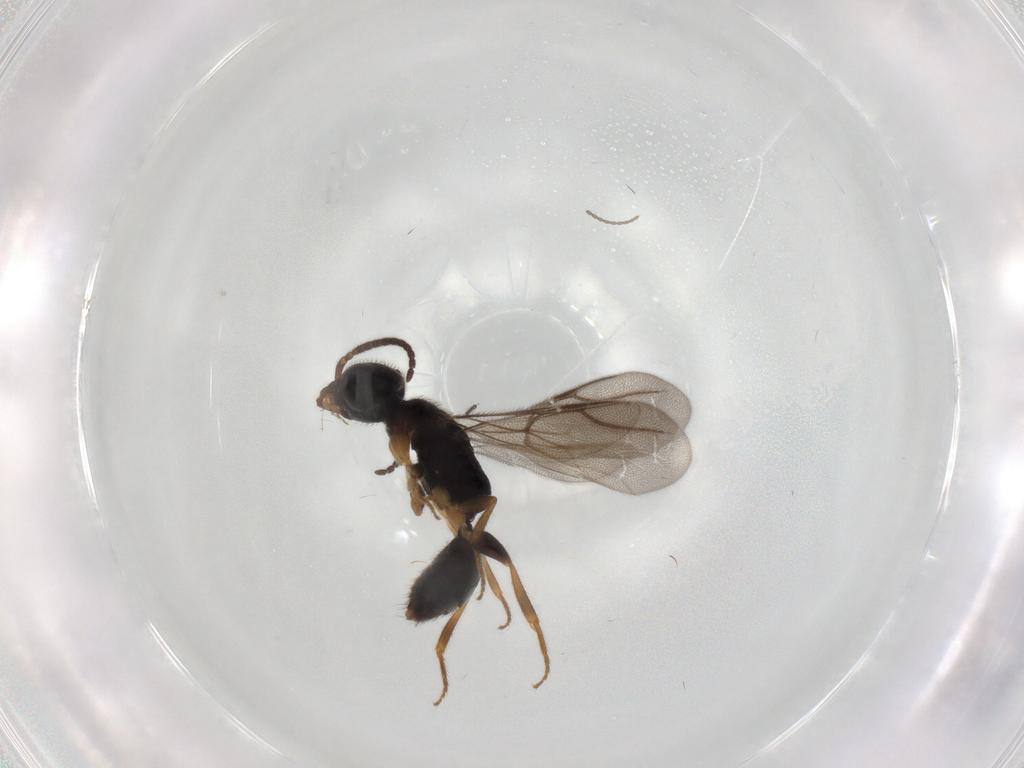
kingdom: Animalia
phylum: Arthropoda
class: Insecta
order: Hymenoptera
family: Bethylidae
